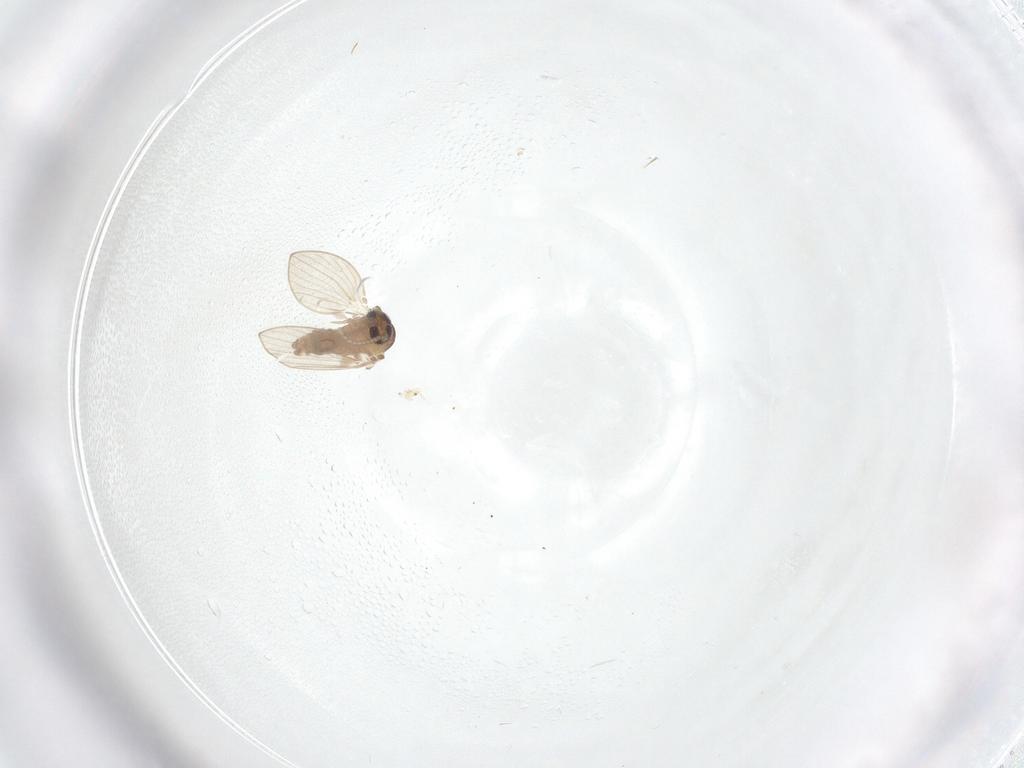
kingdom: Animalia
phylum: Arthropoda
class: Insecta
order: Diptera
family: Psychodidae
